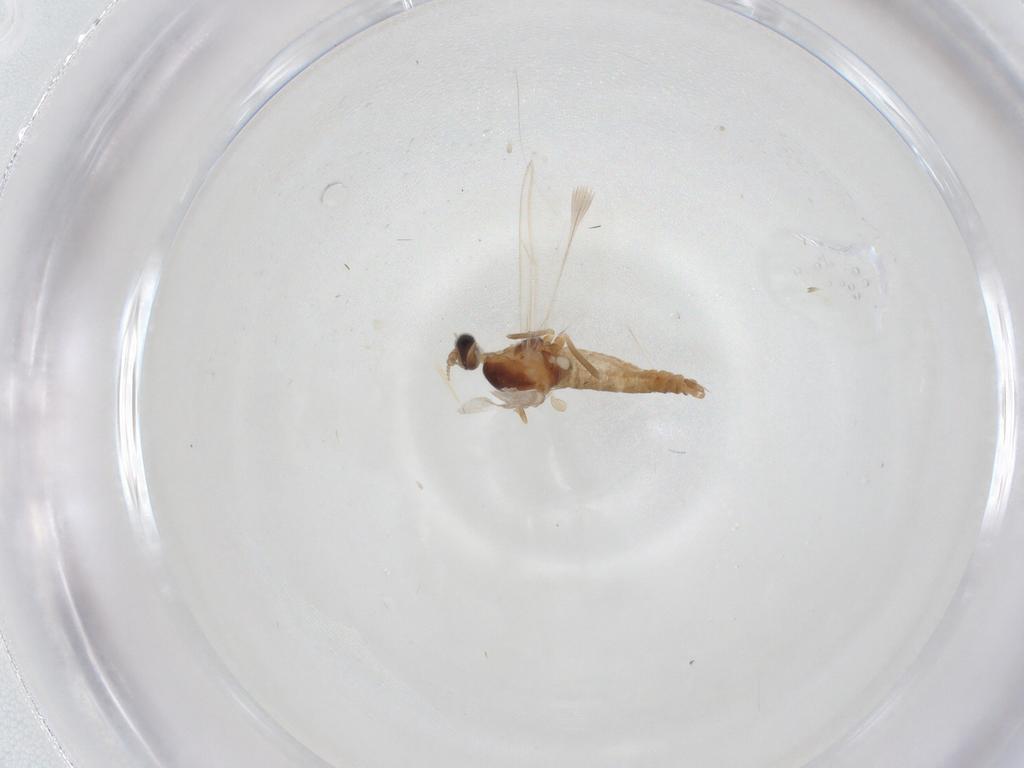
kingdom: Animalia
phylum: Arthropoda
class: Insecta
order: Diptera
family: Cecidomyiidae
